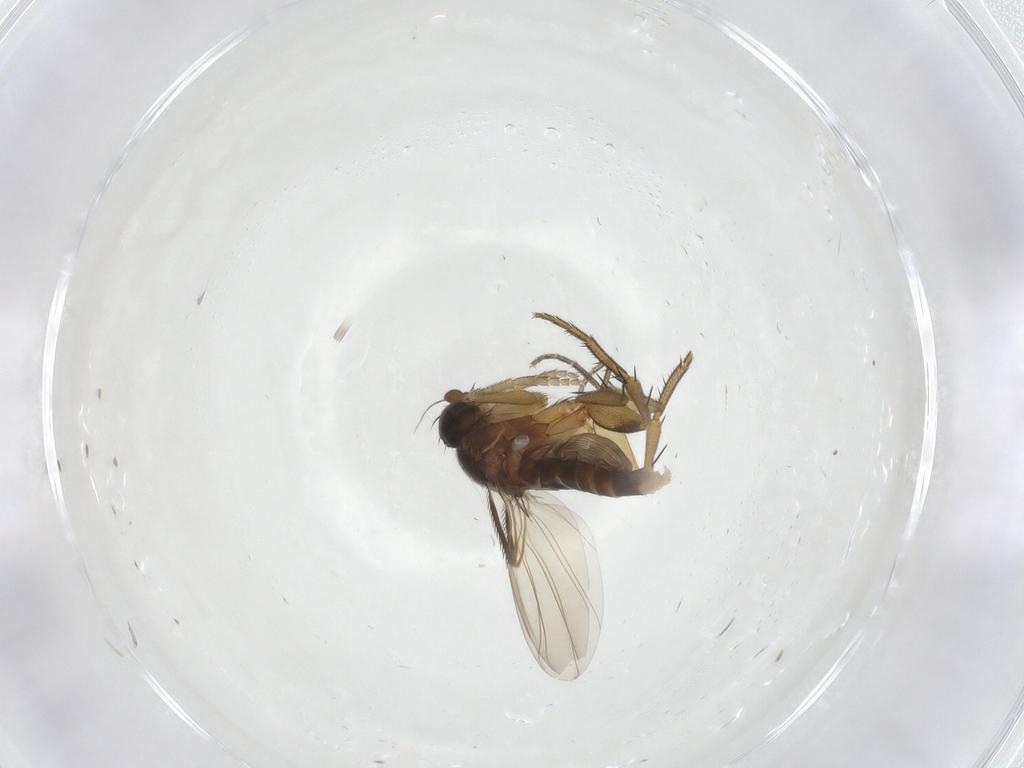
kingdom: Animalia
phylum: Arthropoda
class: Insecta
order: Diptera
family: Phoridae
